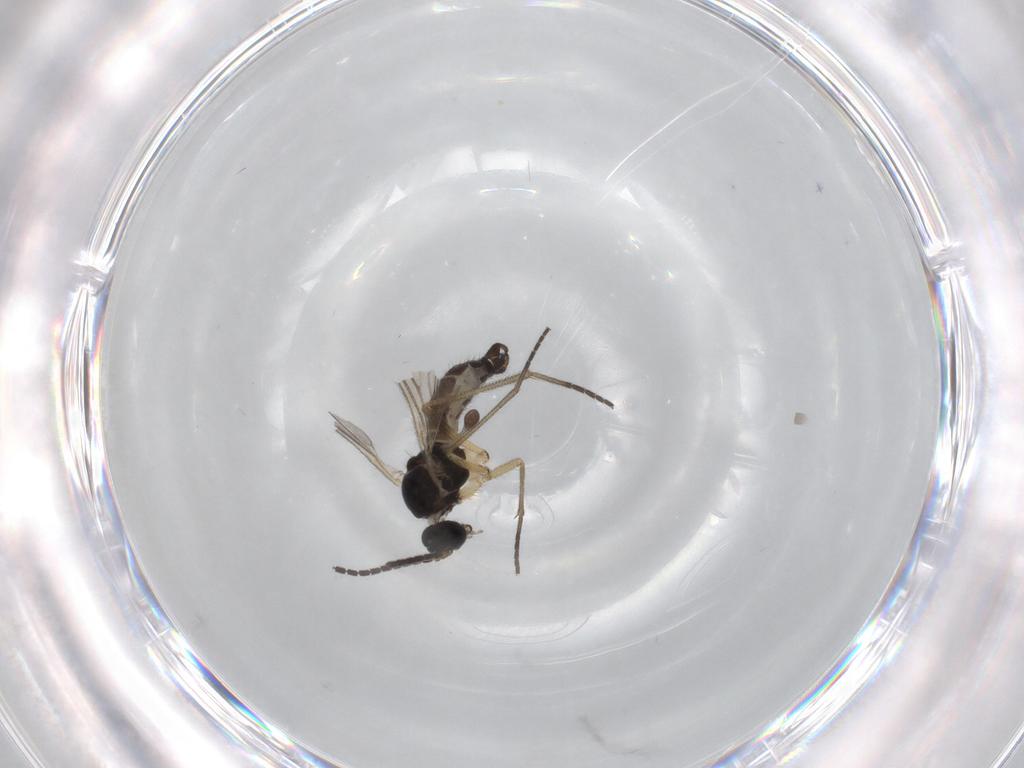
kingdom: Animalia
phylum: Arthropoda
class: Insecta
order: Diptera
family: Sciaridae
